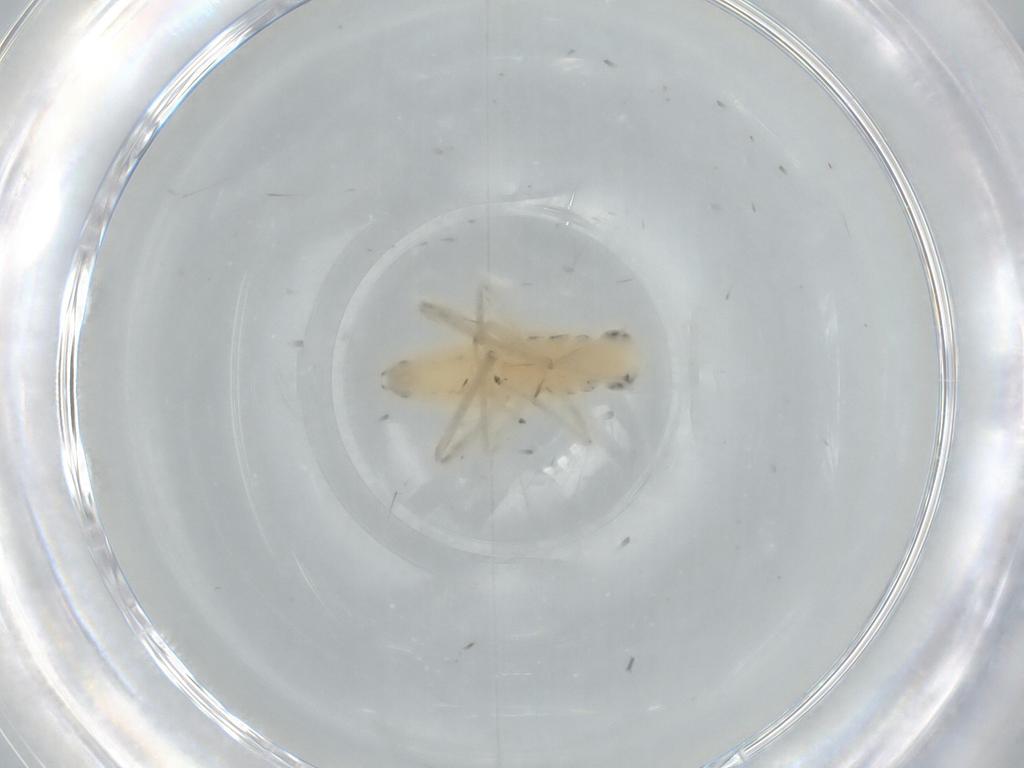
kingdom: Animalia
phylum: Arthropoda
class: Insecta
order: Hemiptera
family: Cicadellidae
